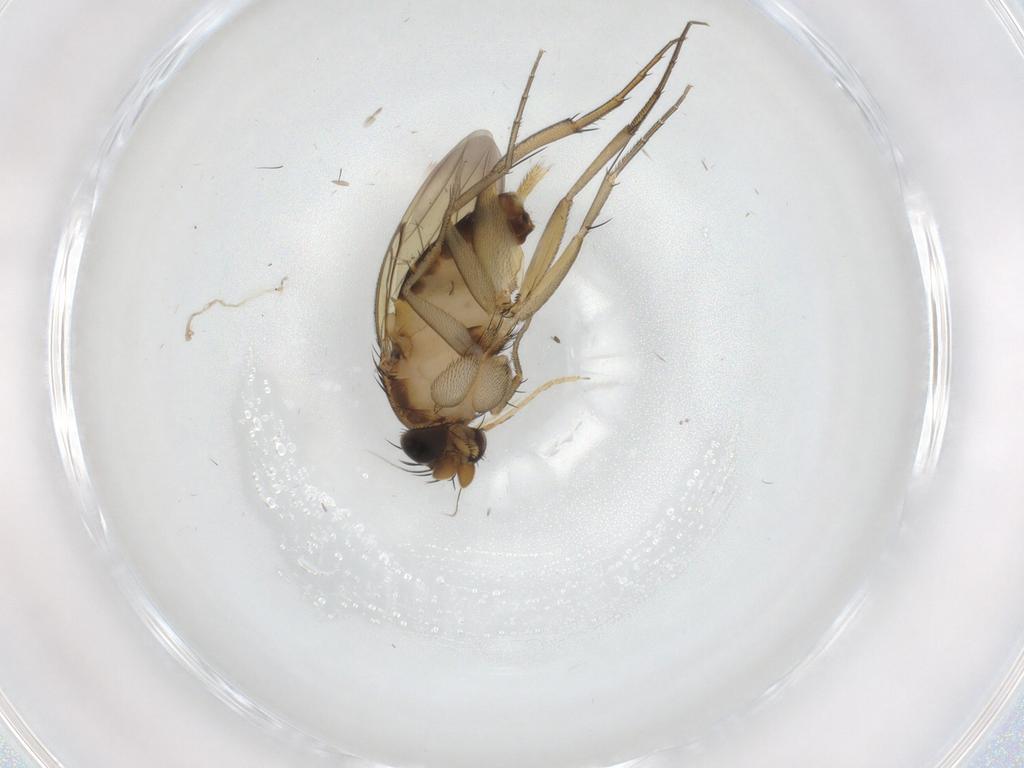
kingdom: Animalia
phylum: Arthropoda
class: Insecta
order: Diptera
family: Phoridae
